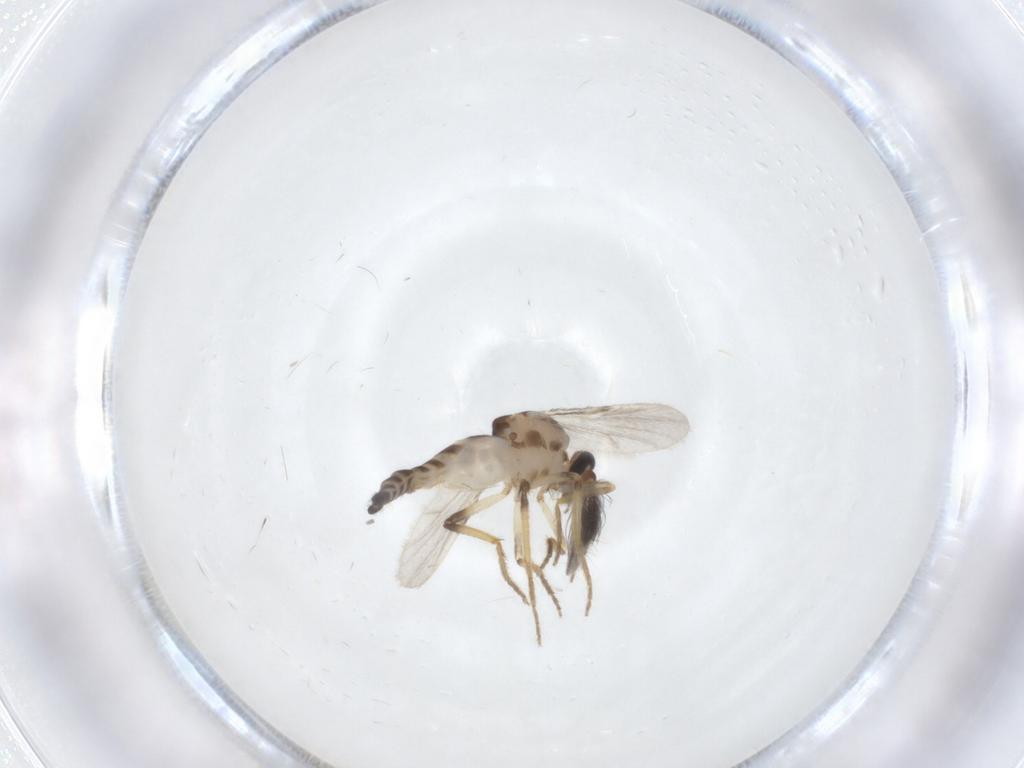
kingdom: Animalia
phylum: Arthropoda
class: Insecta
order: Diptera
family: Ceratopogonidae
